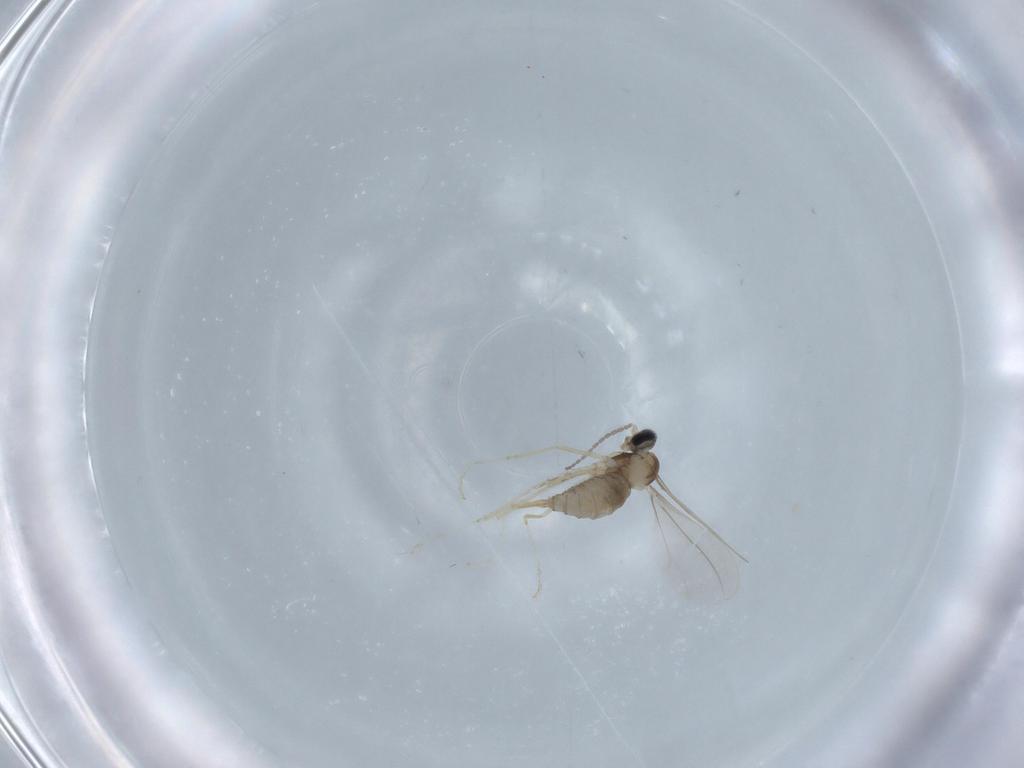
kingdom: Animalia
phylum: Arthropoda
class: Insecta
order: Diptera
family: Cecidomyiidae
